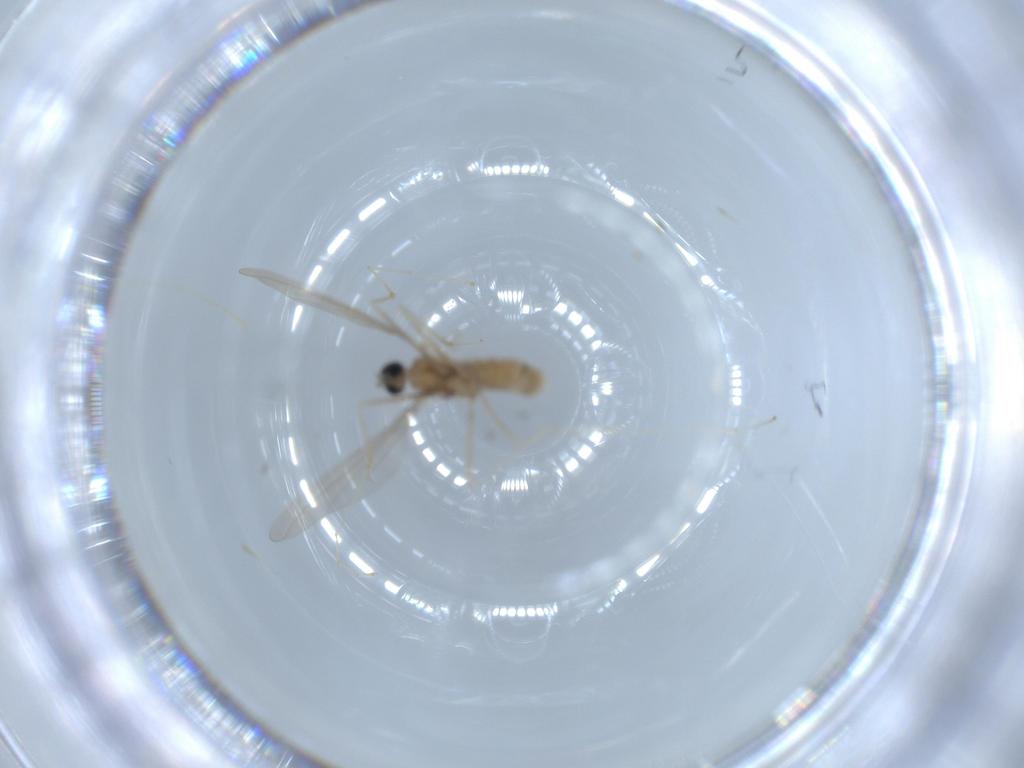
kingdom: Animalia
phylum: Arthropoda
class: Insecta
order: Diptera
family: Cecidomyiidae
